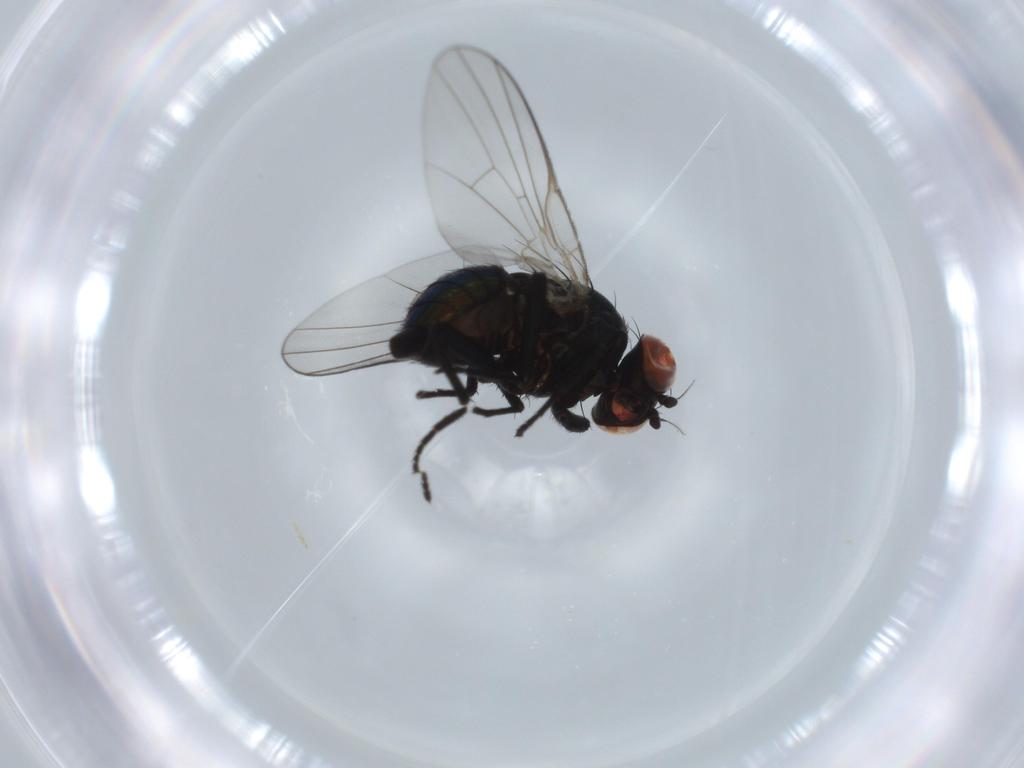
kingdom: Animalia
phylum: Arthropoda
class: Insecta
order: Diptera
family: Agromyzidae
